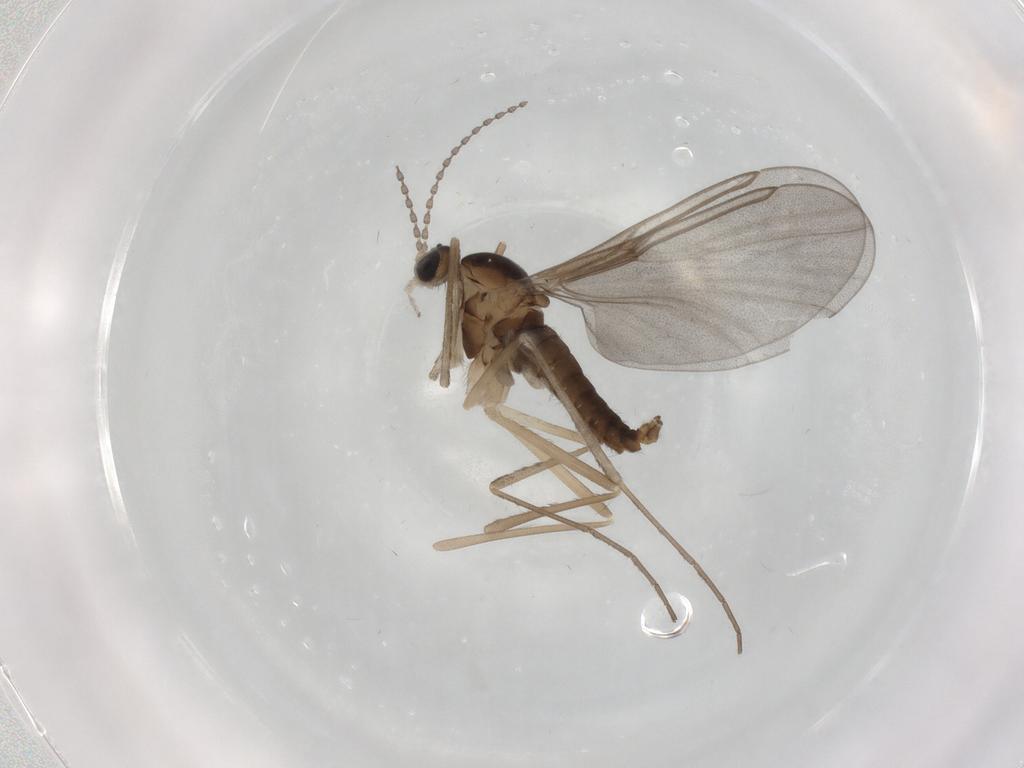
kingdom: Animalia
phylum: Arthropoda
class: Insecta
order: Diptera
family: Cecidomyiidae
